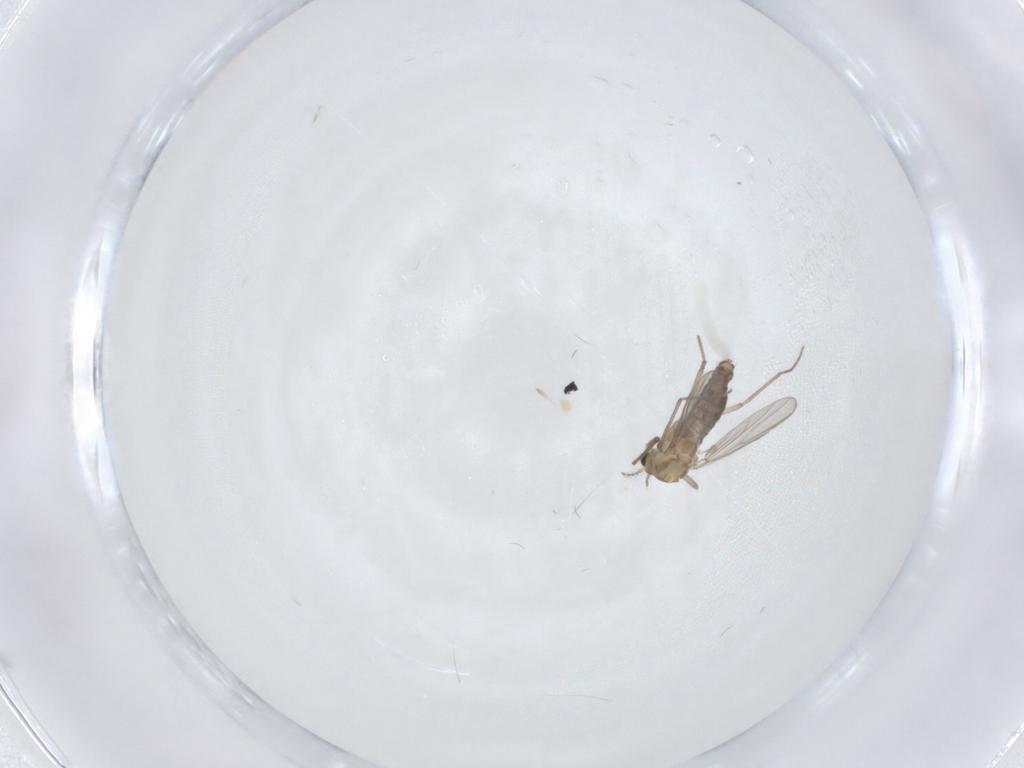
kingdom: Animalia
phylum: Arthropoda
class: Insecta
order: Diptera
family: Chironomidae
